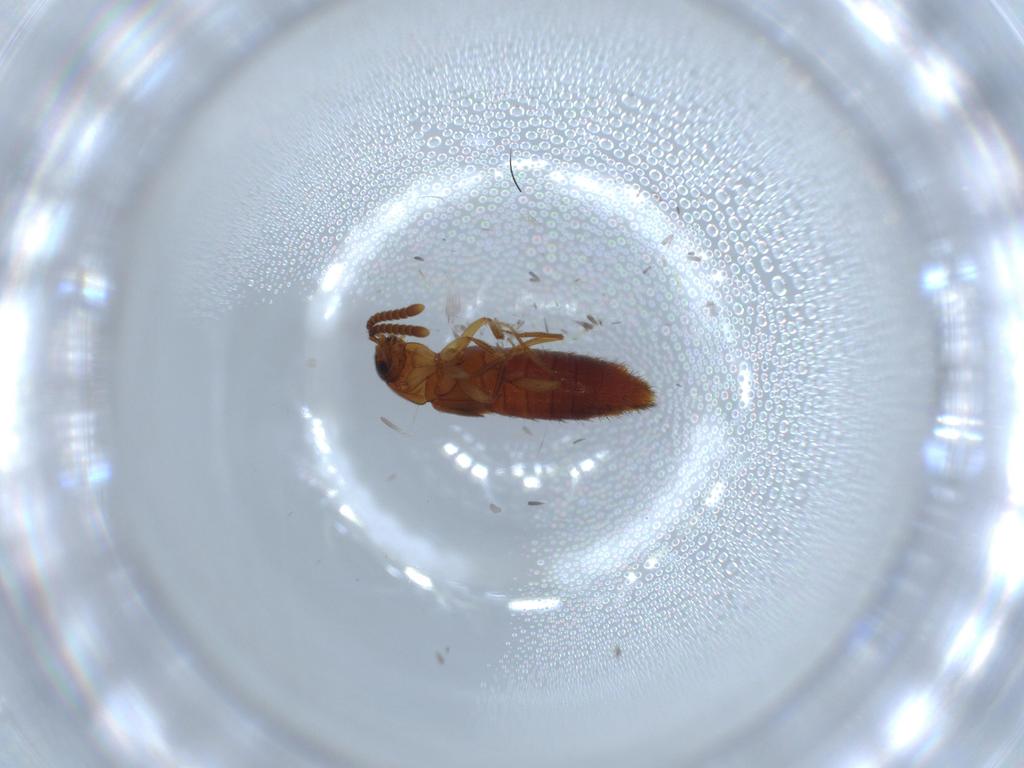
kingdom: Animalia
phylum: Arthropoda
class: Insecta
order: Coleoptera
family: Staphylinidae
